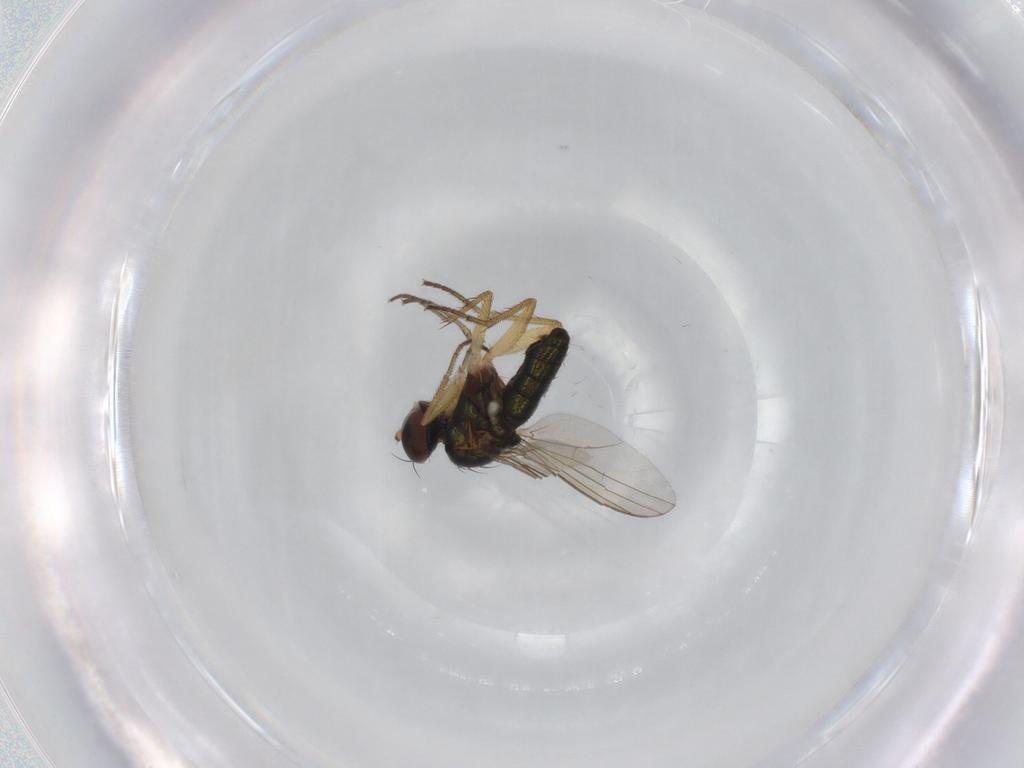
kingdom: Animalia
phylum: Arthropoda
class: Insecta
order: Diptera
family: Dolichopodidae
